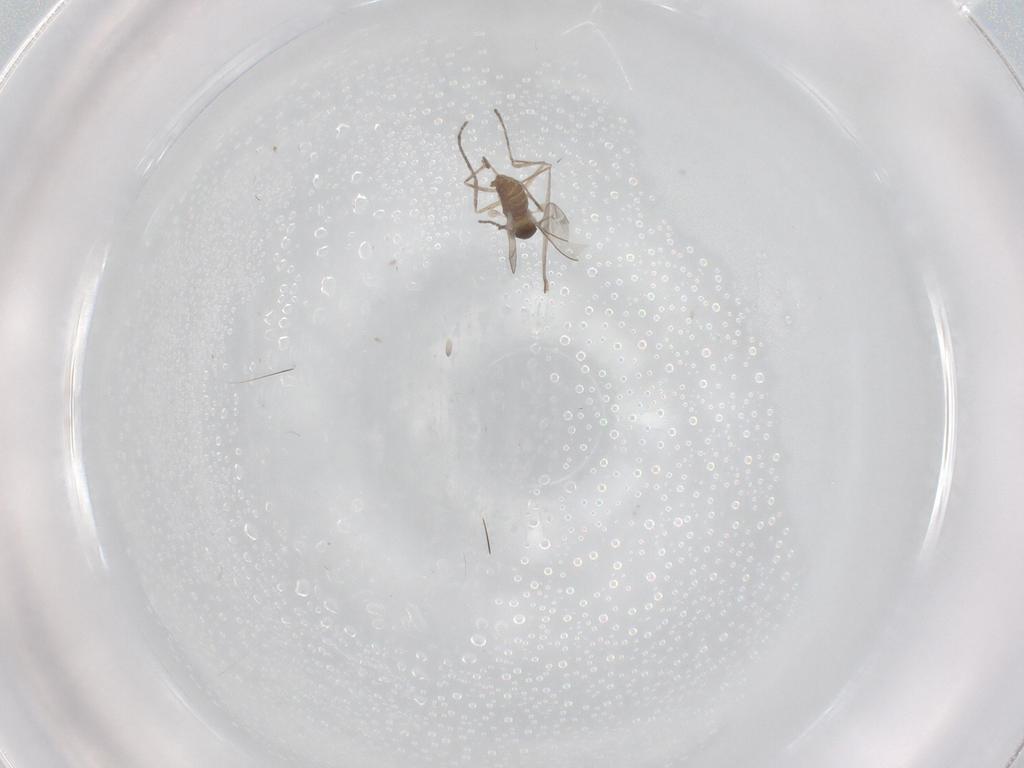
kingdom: Animalia
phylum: Arthropoda
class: Insecta
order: Diptera
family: Cecidomyiidae
